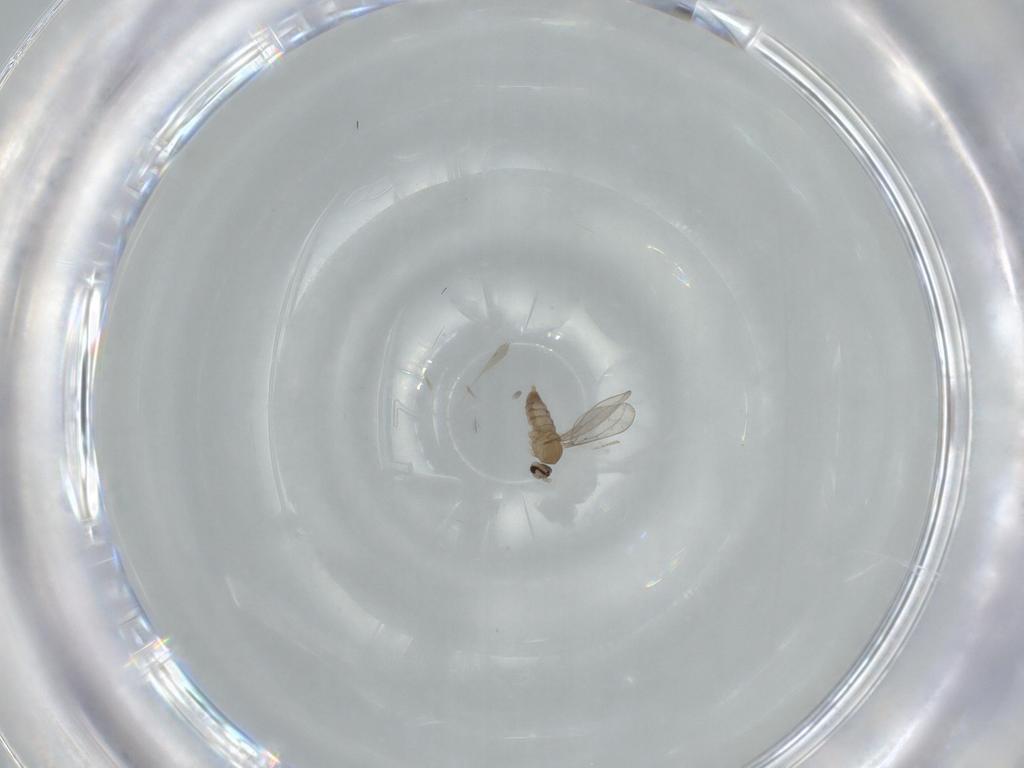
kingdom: Animalia
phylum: Arthropoda
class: Insecta
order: Diptera
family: Cecidomyiidae
